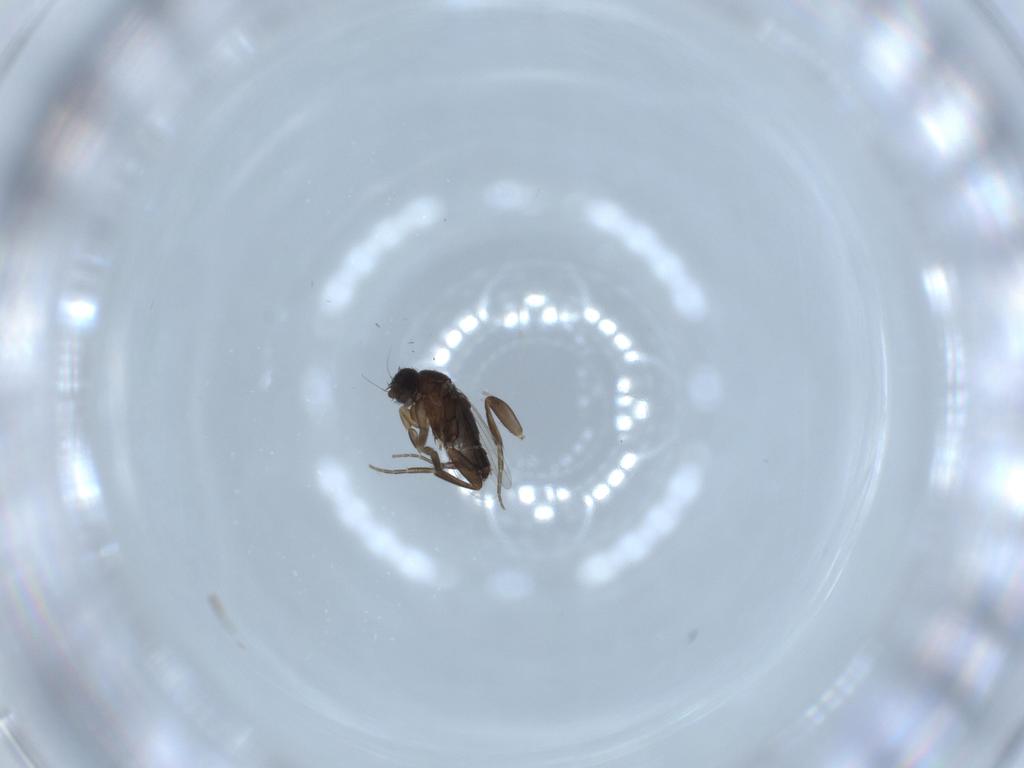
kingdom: Animalia
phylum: Arthropoda
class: Insecta
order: Diptera
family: Phoridae
